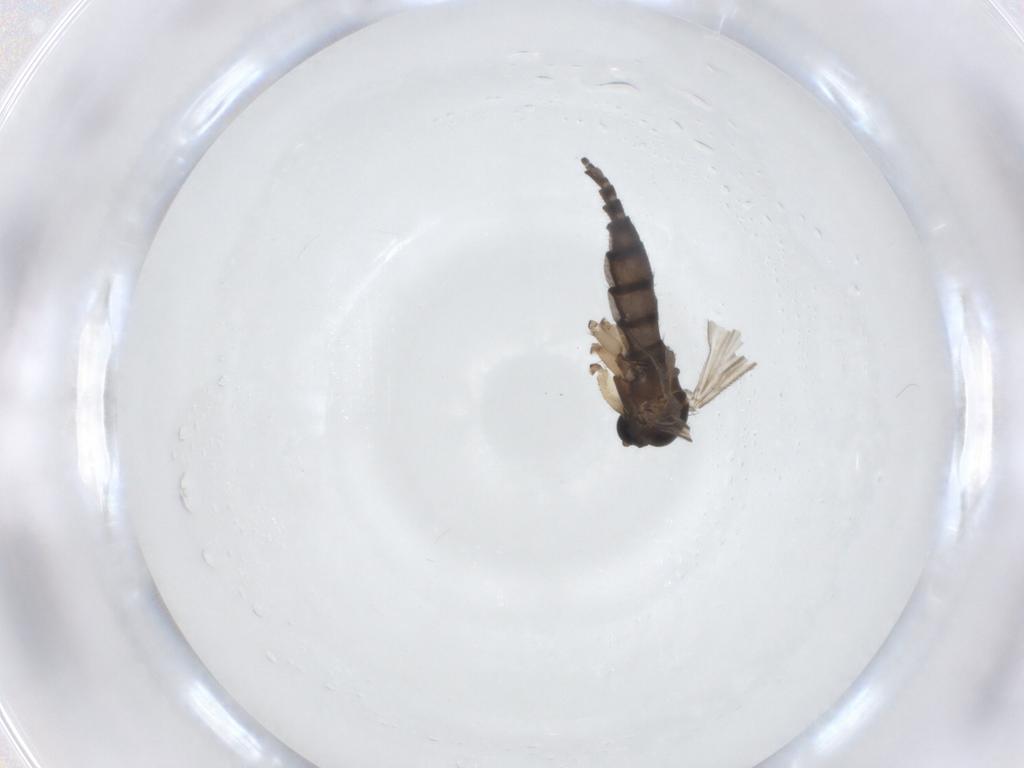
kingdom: Animalia
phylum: Arthropoda
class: Insecta
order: Diptera
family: Sciaridae
